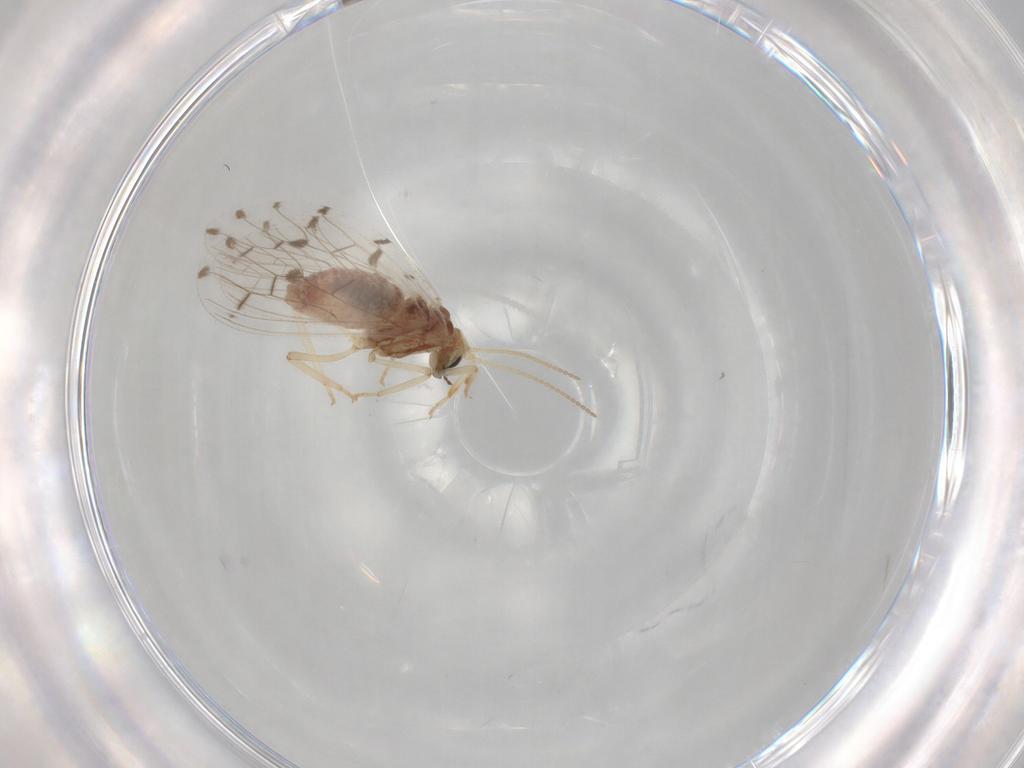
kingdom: Animalia
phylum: Arthropoda
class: Insecta
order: Neuroptera
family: Coniopterygidae
